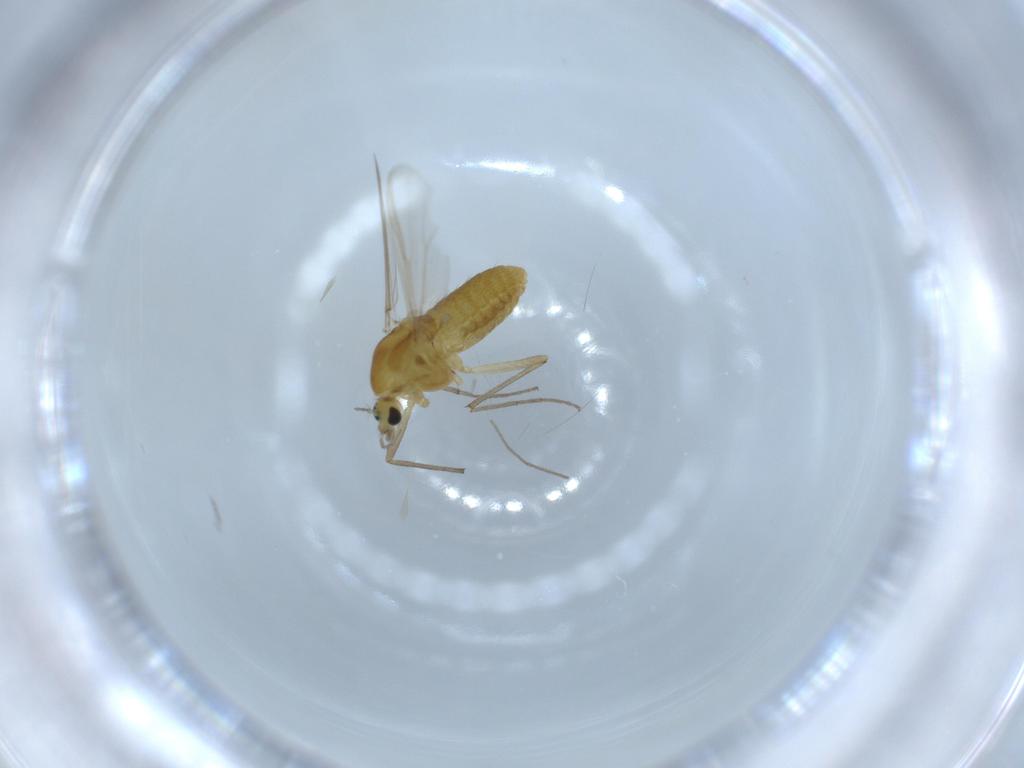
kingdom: Animalia
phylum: Arthropoda
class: Insecta
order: Diptera
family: Chironomidae
